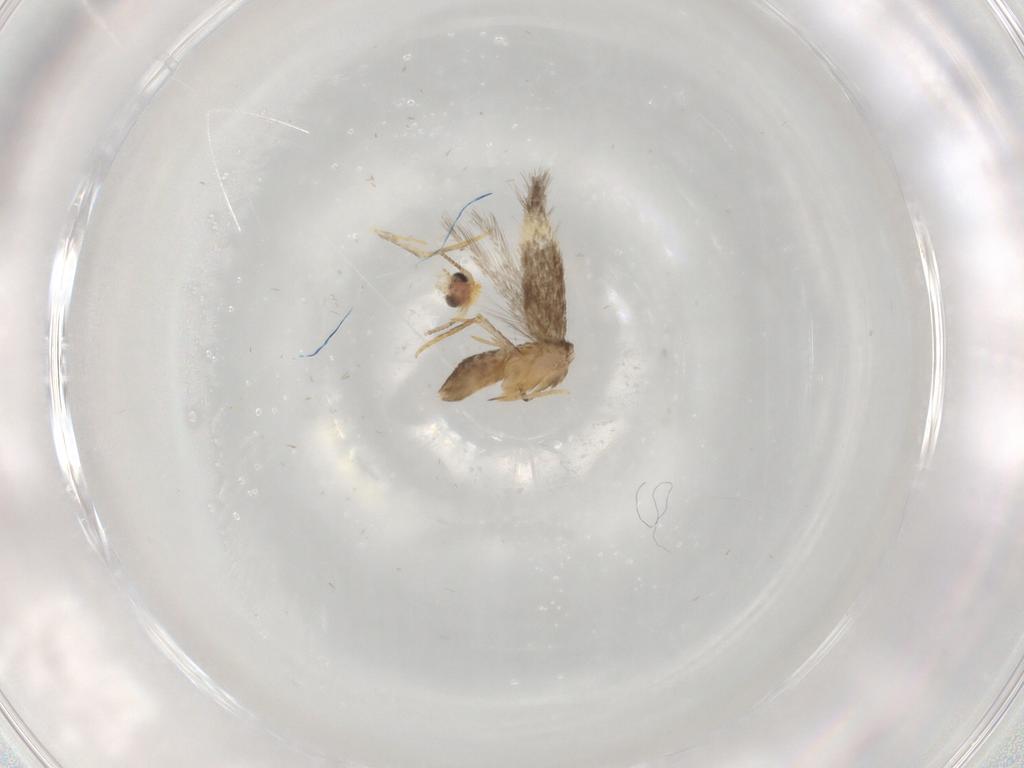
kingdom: Animalia
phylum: Arthropoda
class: Insecta
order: Lepidoptera
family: Nepticulidae
